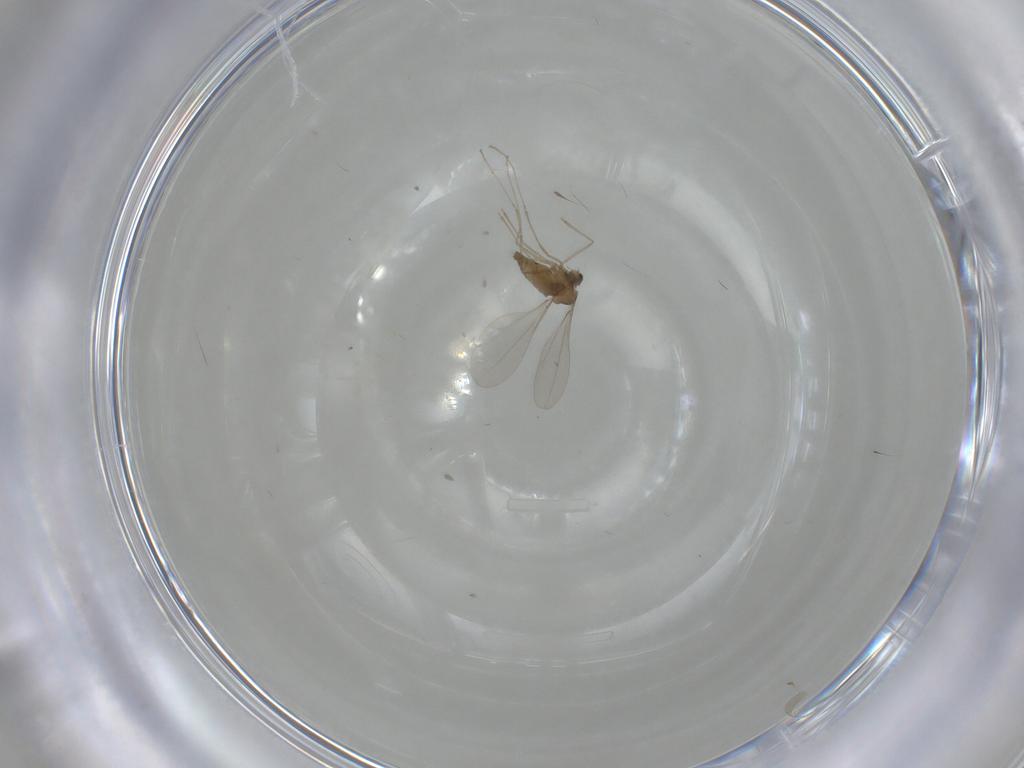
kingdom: Animalia
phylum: Arthropoda
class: Insecta
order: Diptera
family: Cecidomyiidae
